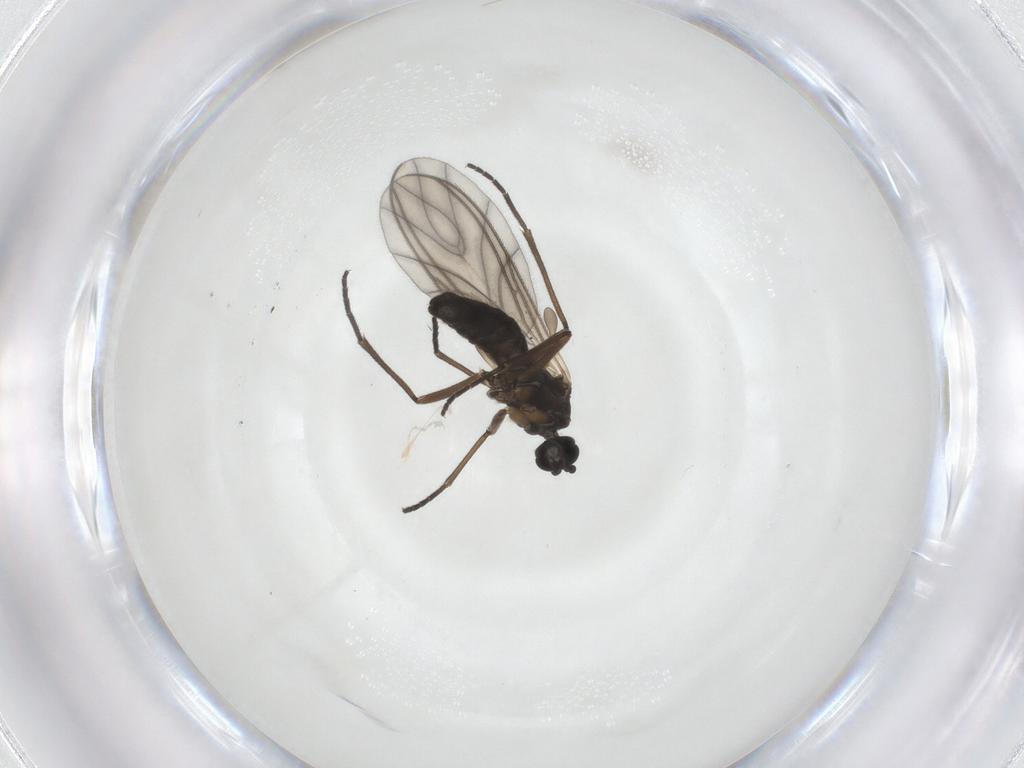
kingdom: Animalia
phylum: Arthropoda
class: Insecta
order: Diptera
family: Sciaridae
